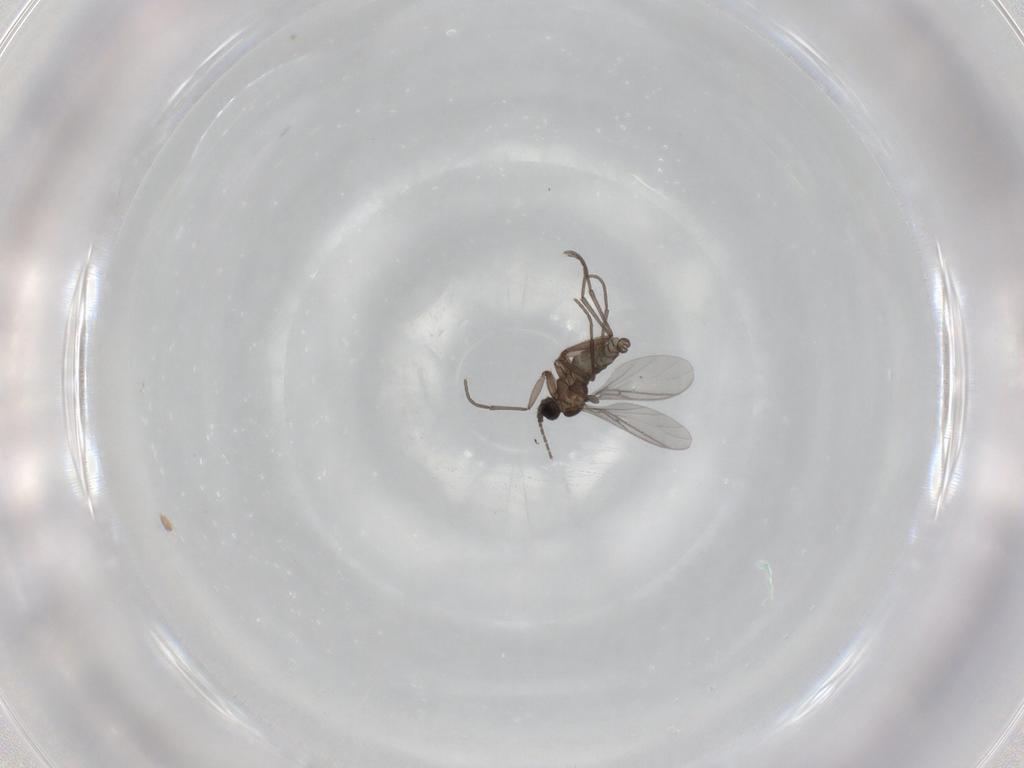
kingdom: Animalia
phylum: Arthropoda
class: Insecta
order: Diptera
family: Sciaridae
